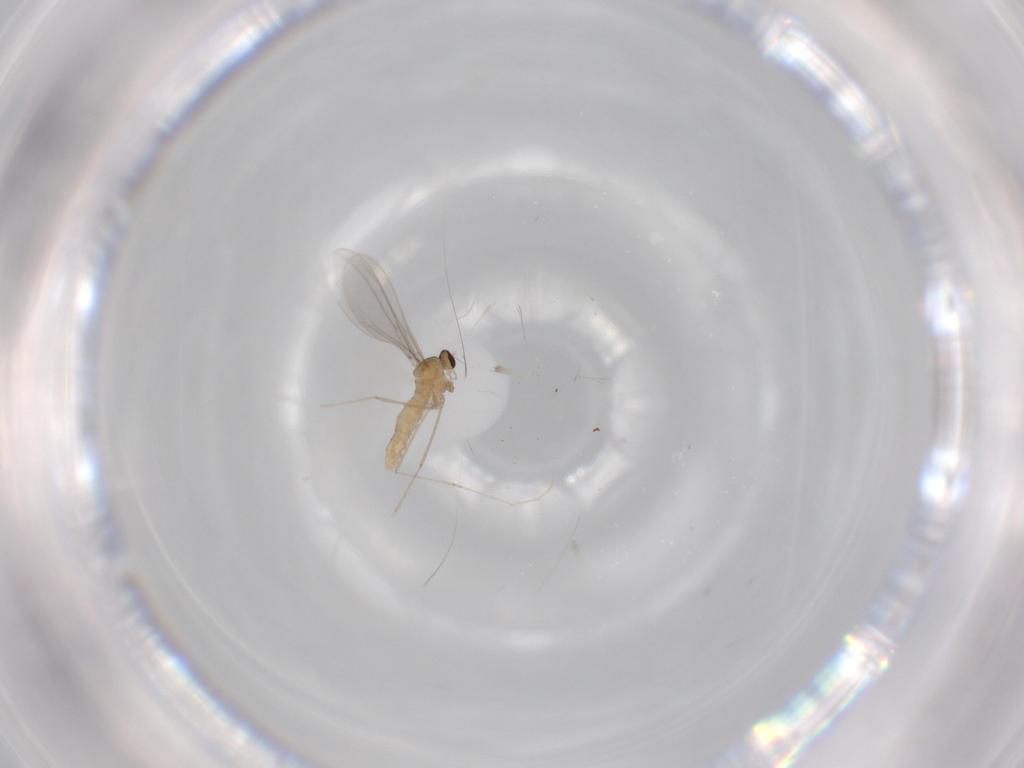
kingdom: Animalia
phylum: Arthropoda
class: Insecta
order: Diptera
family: Cecidomyiidae
